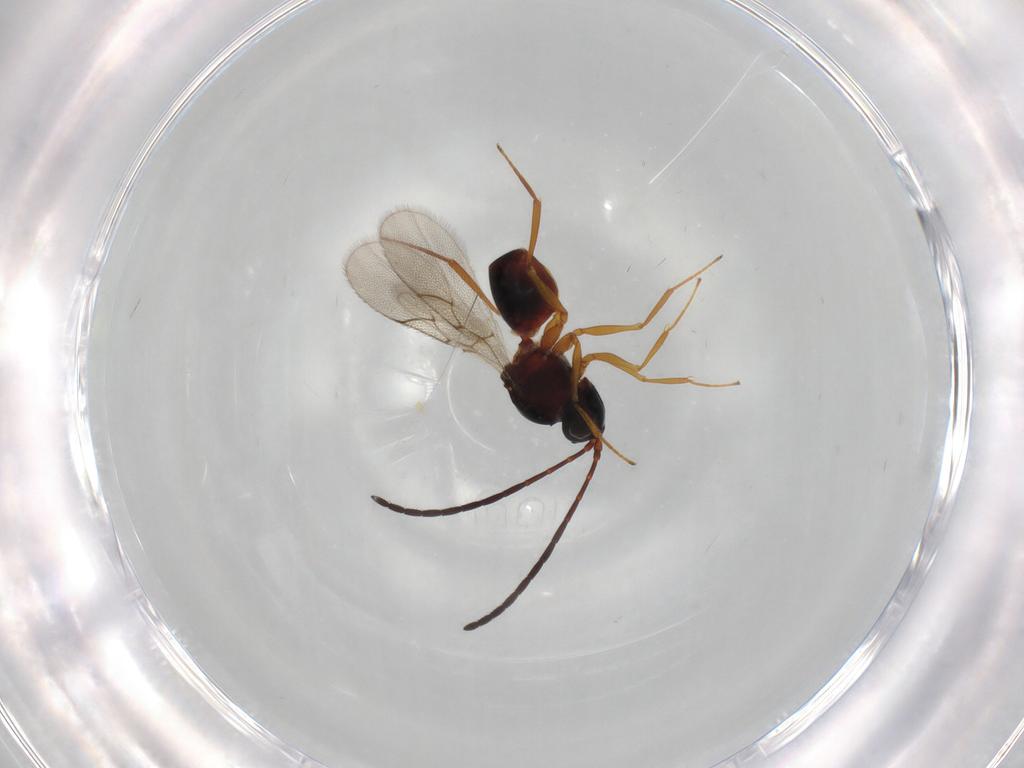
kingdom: Animalia
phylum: Arthropoda
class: Insecta
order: Hymenoptera
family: Figitidae
